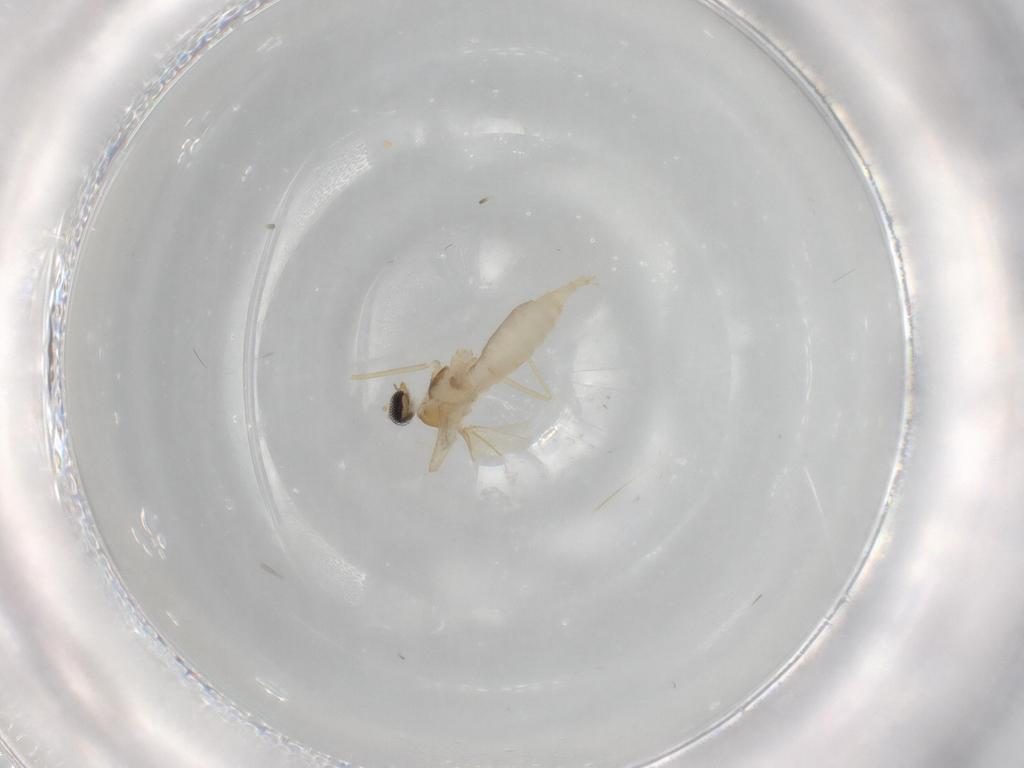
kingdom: Animalia
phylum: Arthropoda
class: Insecta
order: Diptera
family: Cecidomyiidae
